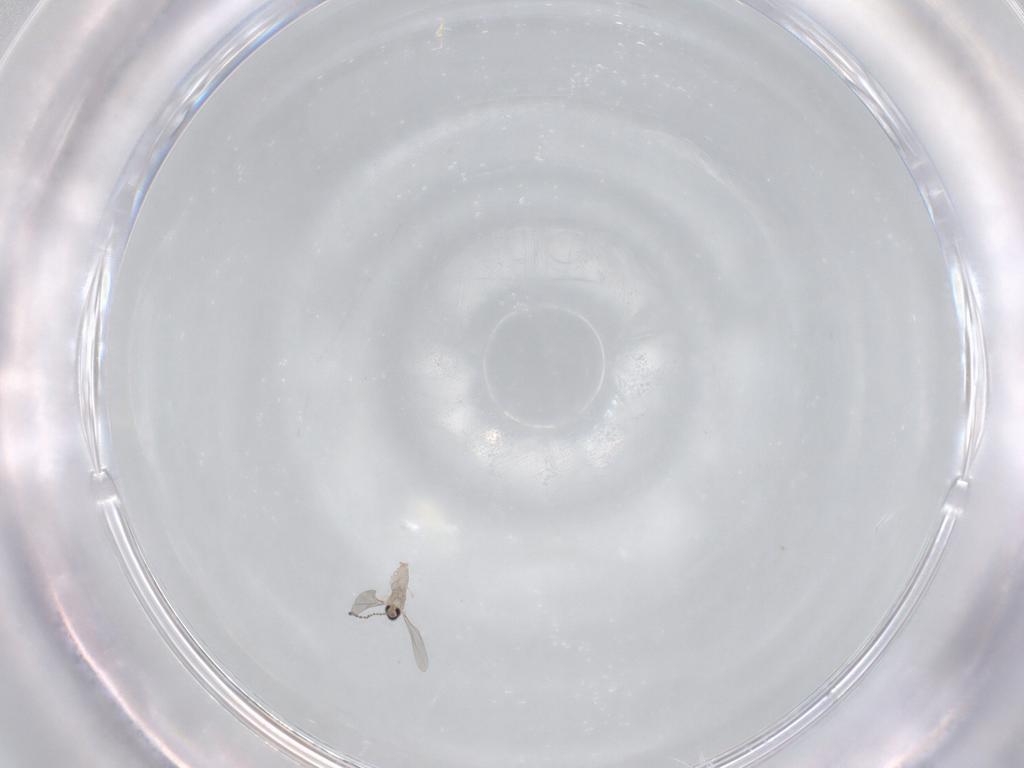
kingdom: Animalia
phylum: Arthropoda
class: Insecta
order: Diptera
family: Cecidomyiidae
